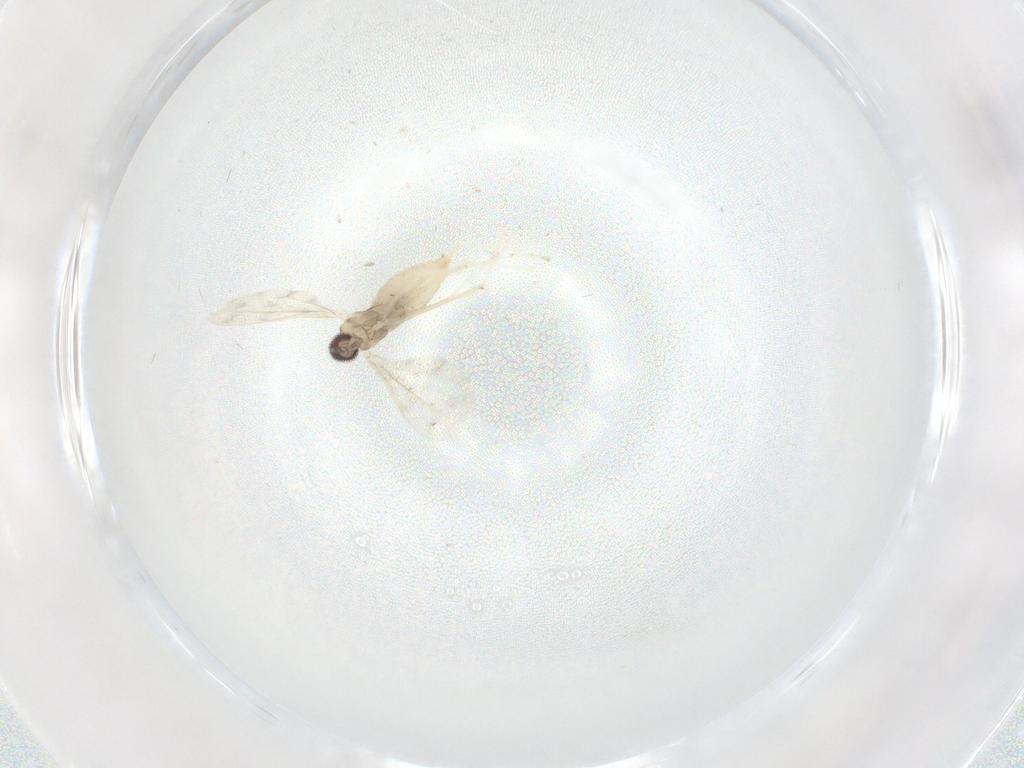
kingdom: Animalia
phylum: Arthropoda
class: Insecta
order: Diptera
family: Cecidomyiidae
